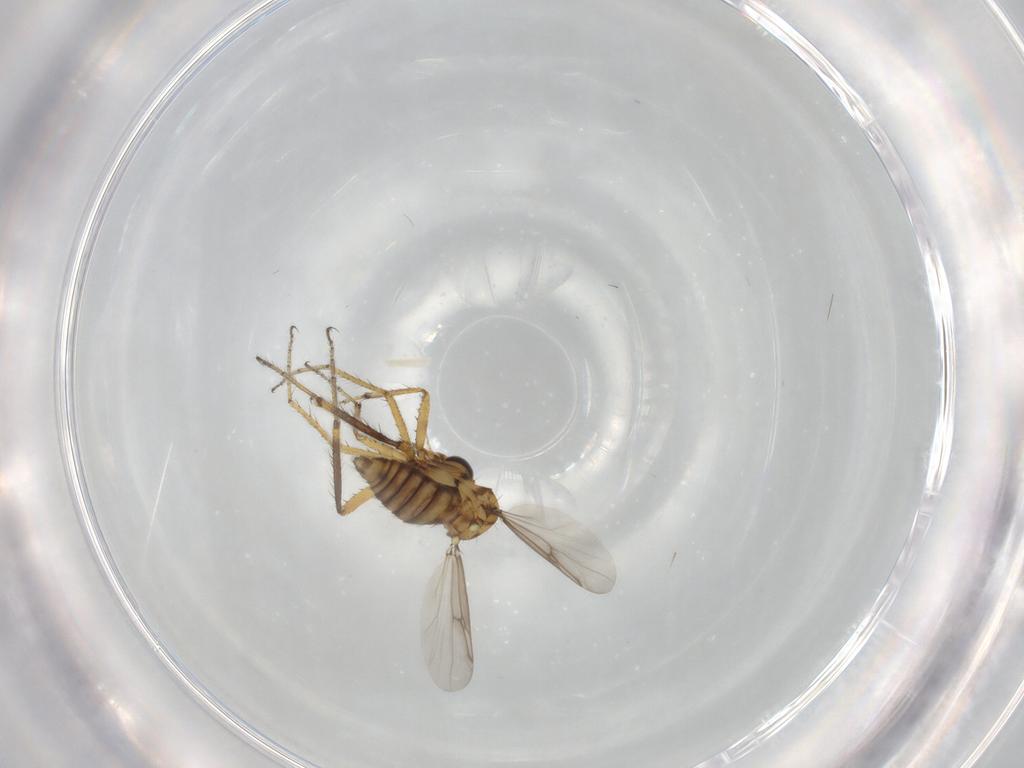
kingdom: Animalia
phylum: Arthropoda
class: Insecta
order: Diptera
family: Sciaridae
